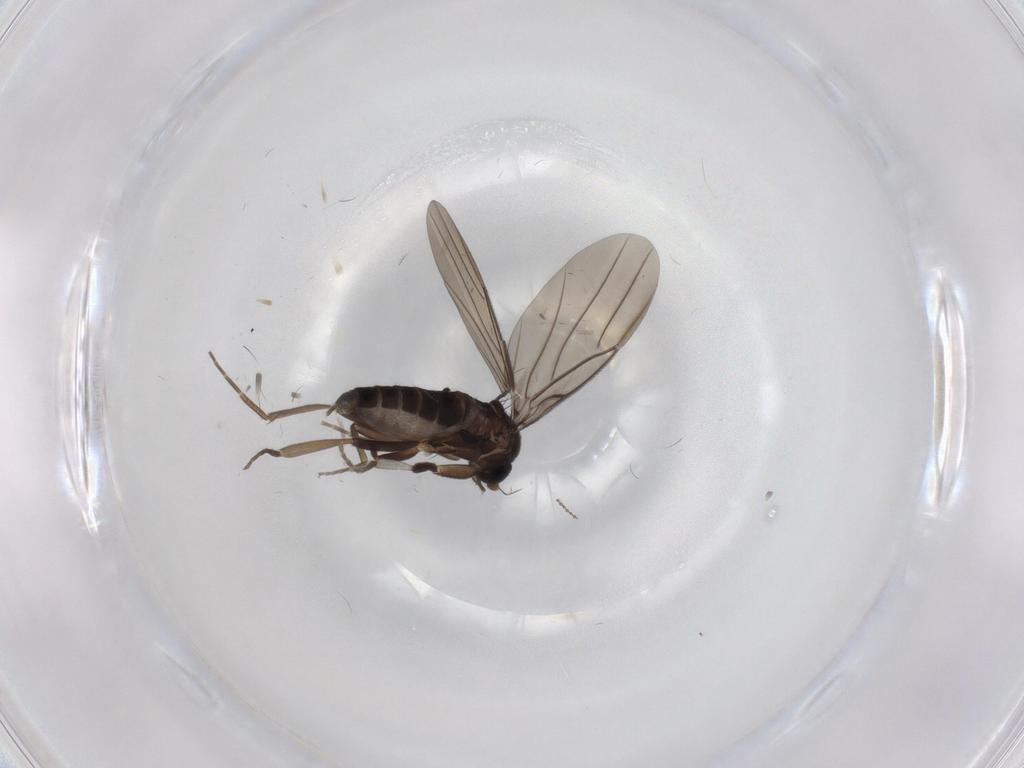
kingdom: Animalia
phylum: Arthropoda
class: Insecta
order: Diptera
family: Phoridae
